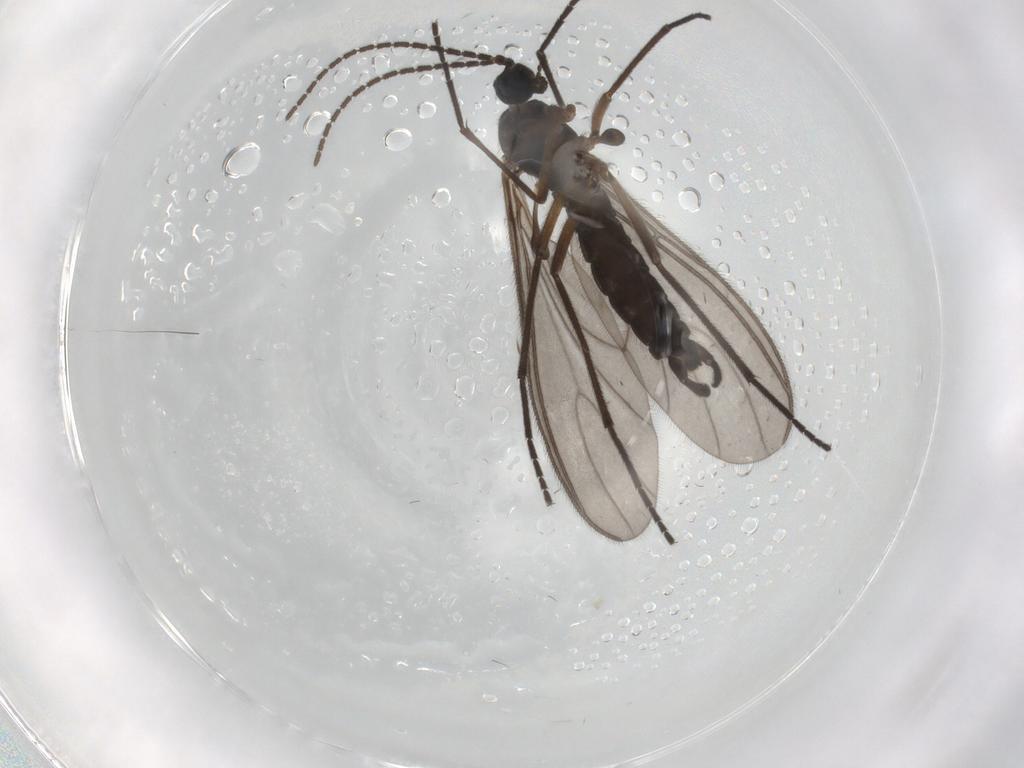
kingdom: Animalia
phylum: Arthropoda
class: Insecta
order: Diptera
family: Sciaridae
